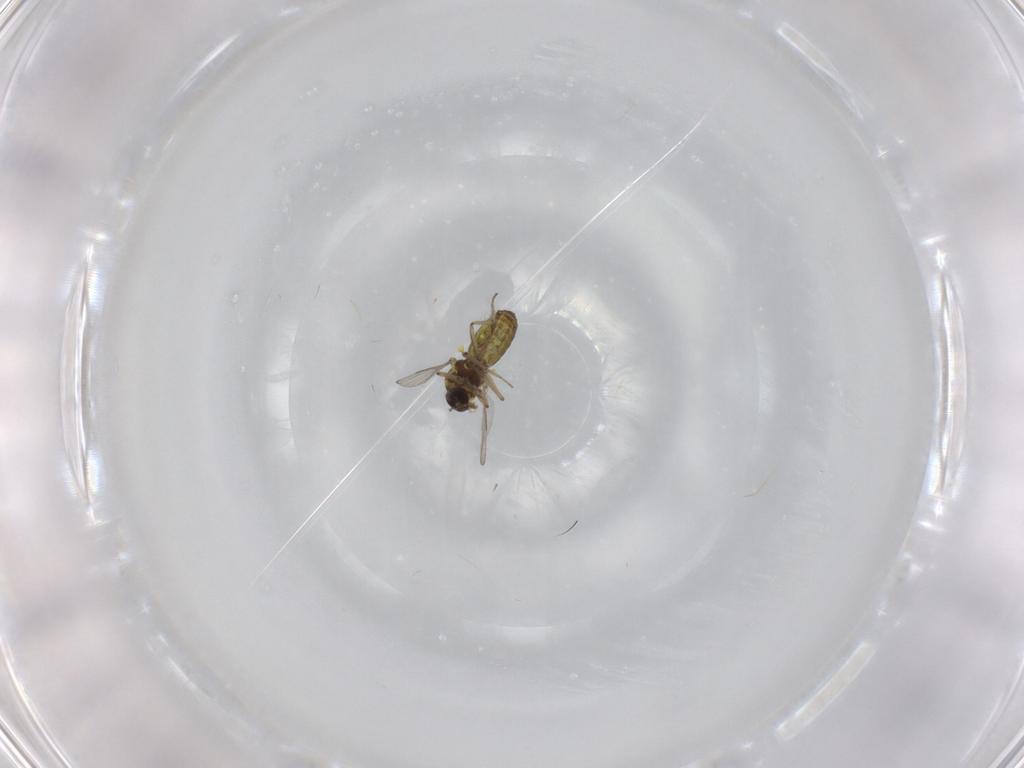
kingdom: Animalia
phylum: Arthropoda
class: Insecta
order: Diptera
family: Ceratopogonidae
